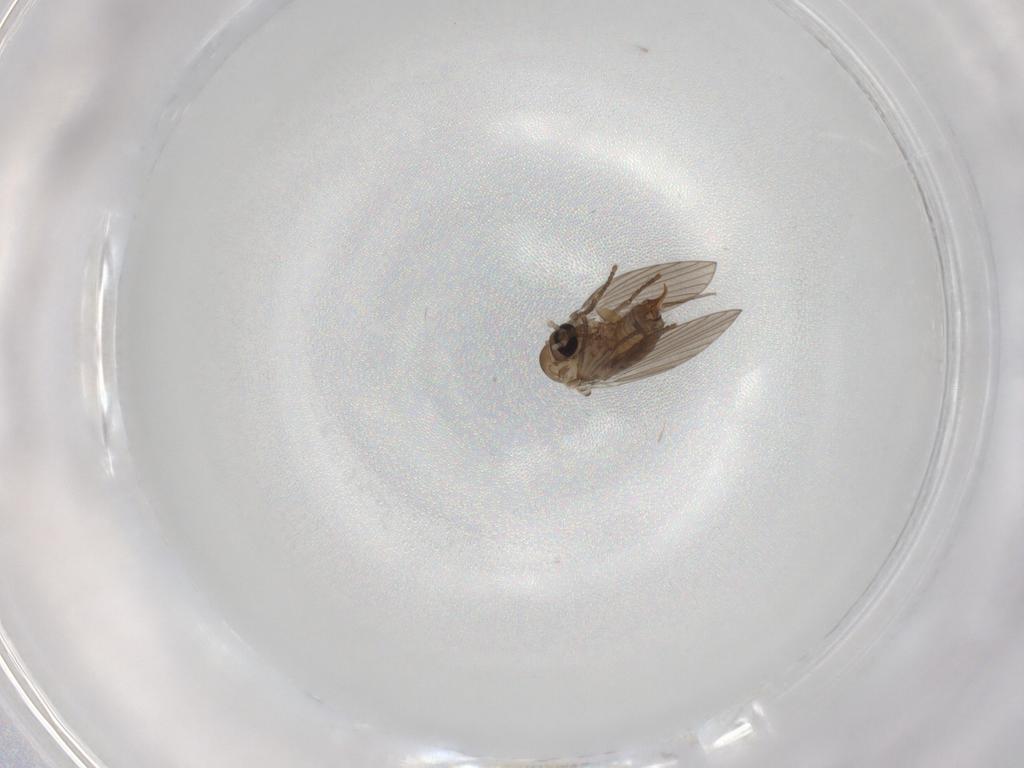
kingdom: Animalia
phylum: Arthropoda
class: Insecta
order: Diptera
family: Psychodidae
